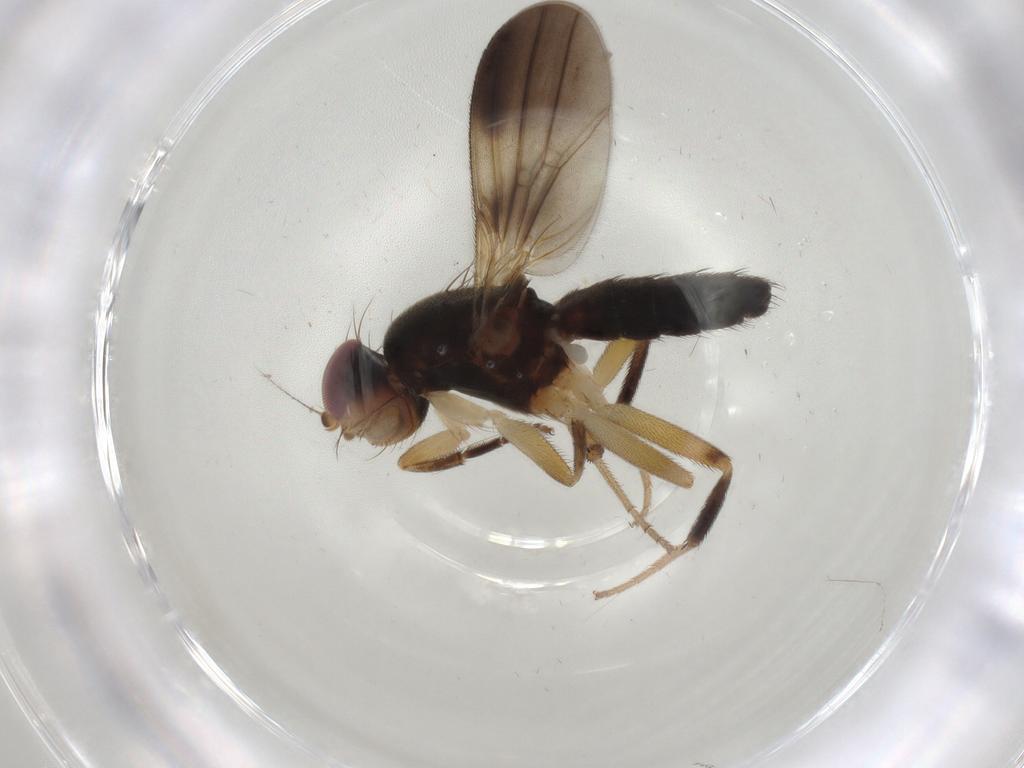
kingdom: Animalia
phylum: Arthropoda
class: Insecta
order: Diptera
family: Clusiidae
